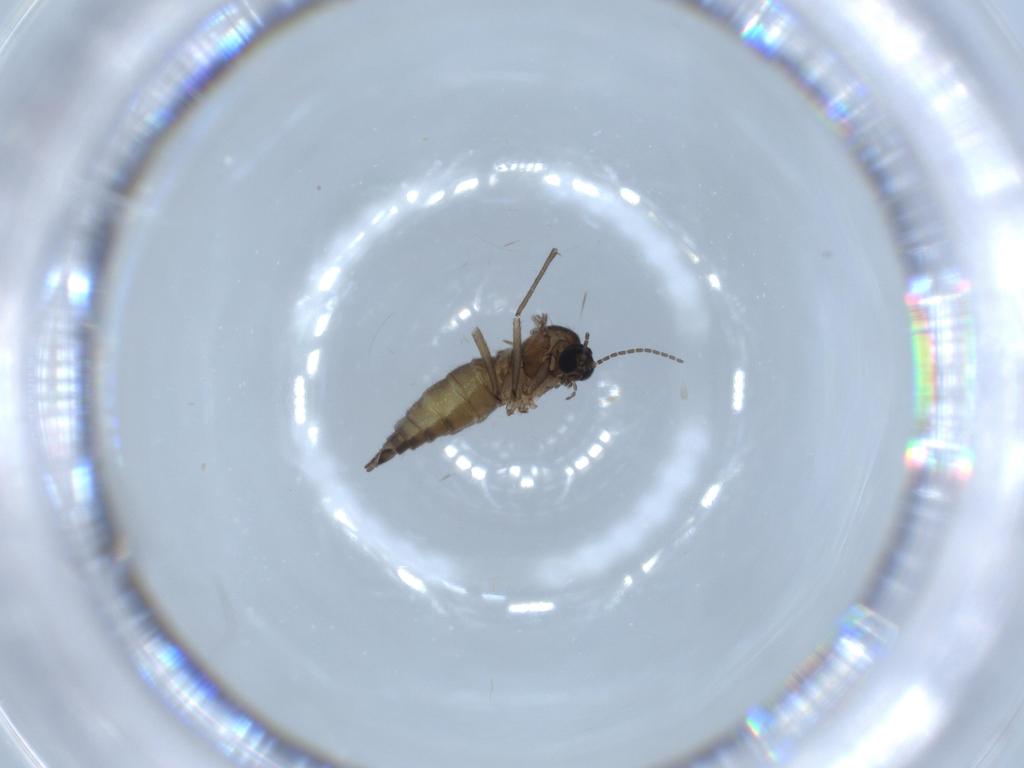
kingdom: Animalia
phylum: Arthropoda
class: Insecta
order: Diptera
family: Sciaridae
